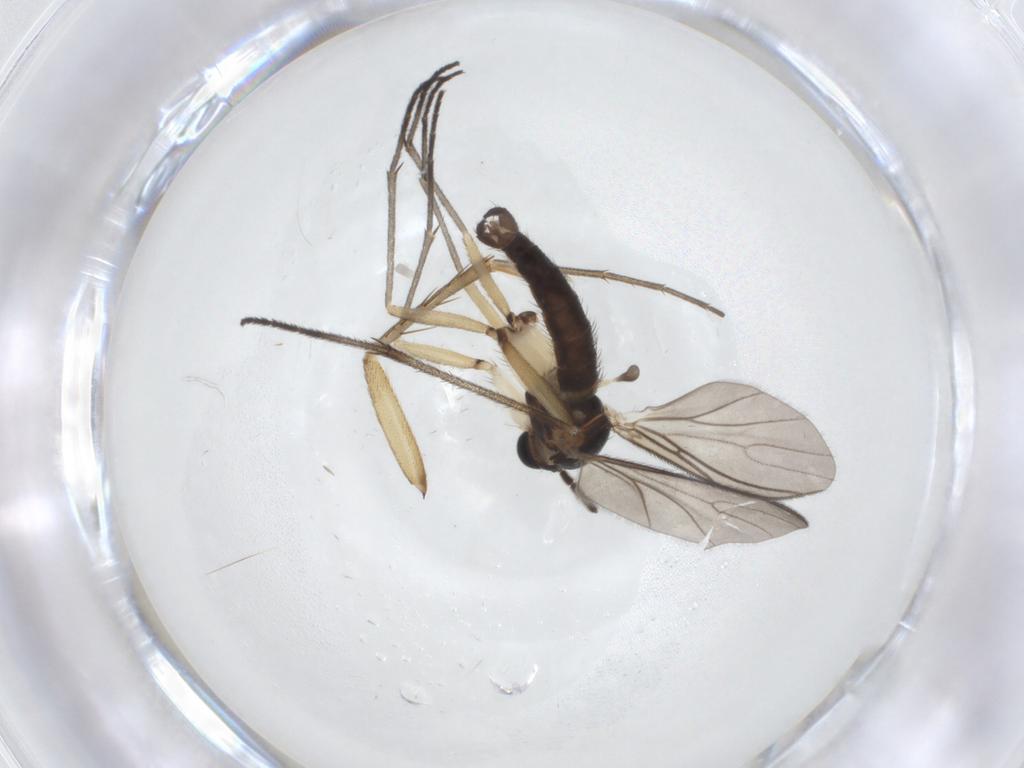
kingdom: Animalia
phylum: Arthropoda
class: Insecta
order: Diptera
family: Sciaridae
